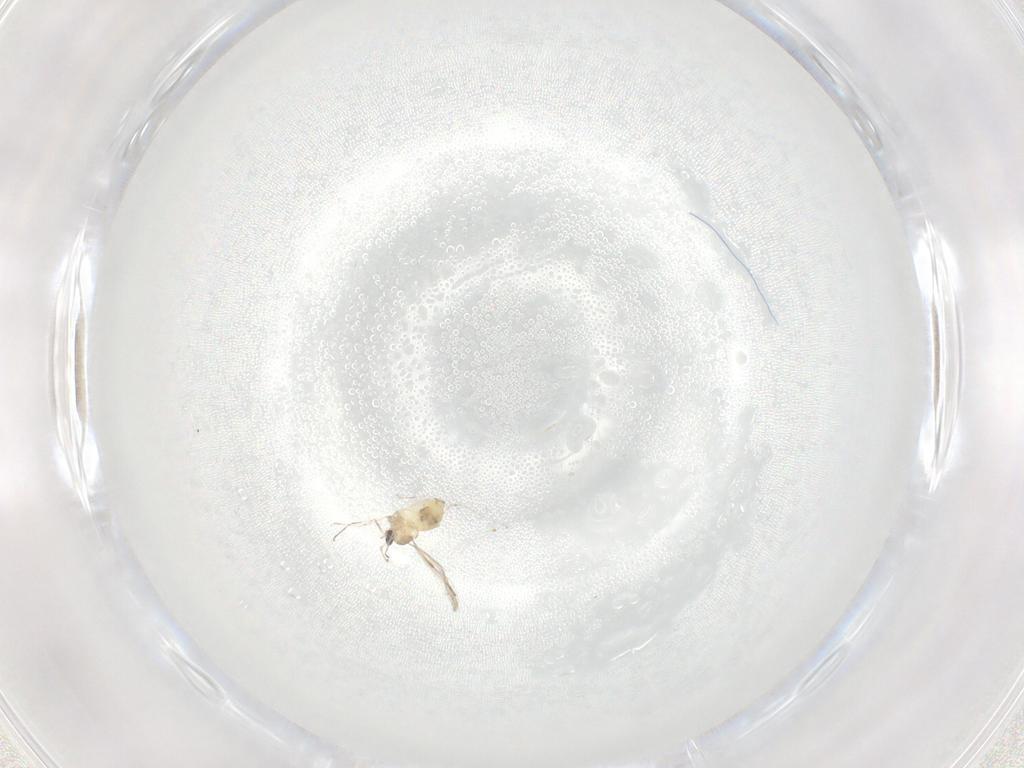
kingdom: Animalia
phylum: Arthropoda
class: Insecta
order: Diptera
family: Cecidomyiidae
